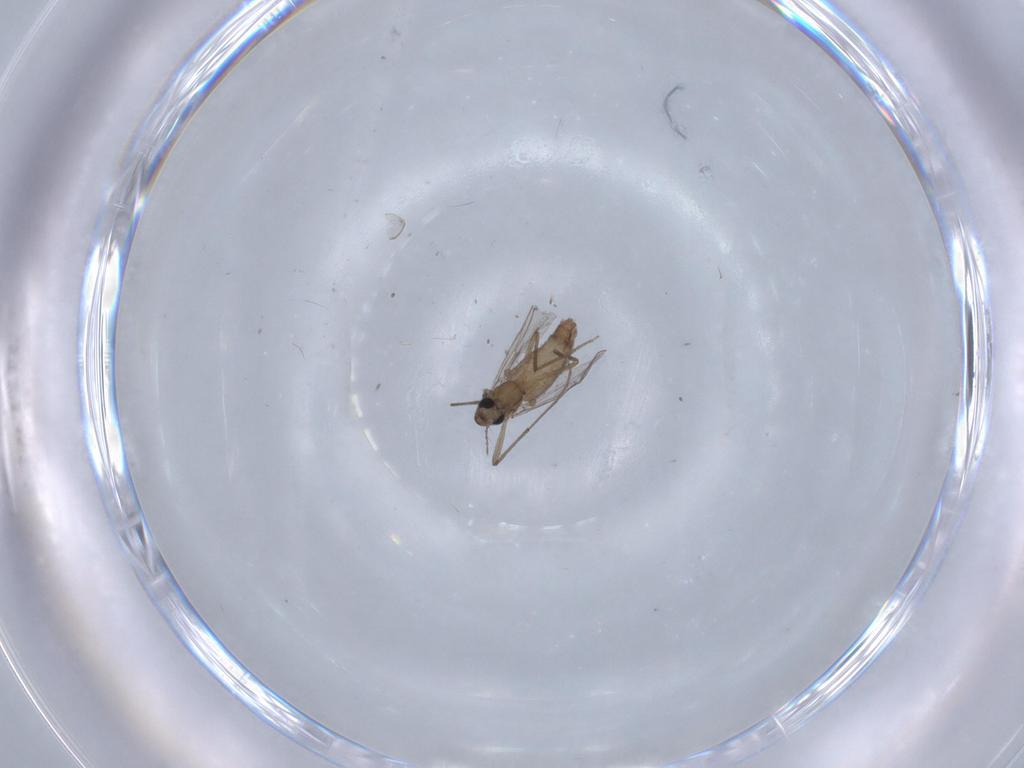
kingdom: Animalia
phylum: Arthropoda
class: Insecta
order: Diptera
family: Chironomidae
